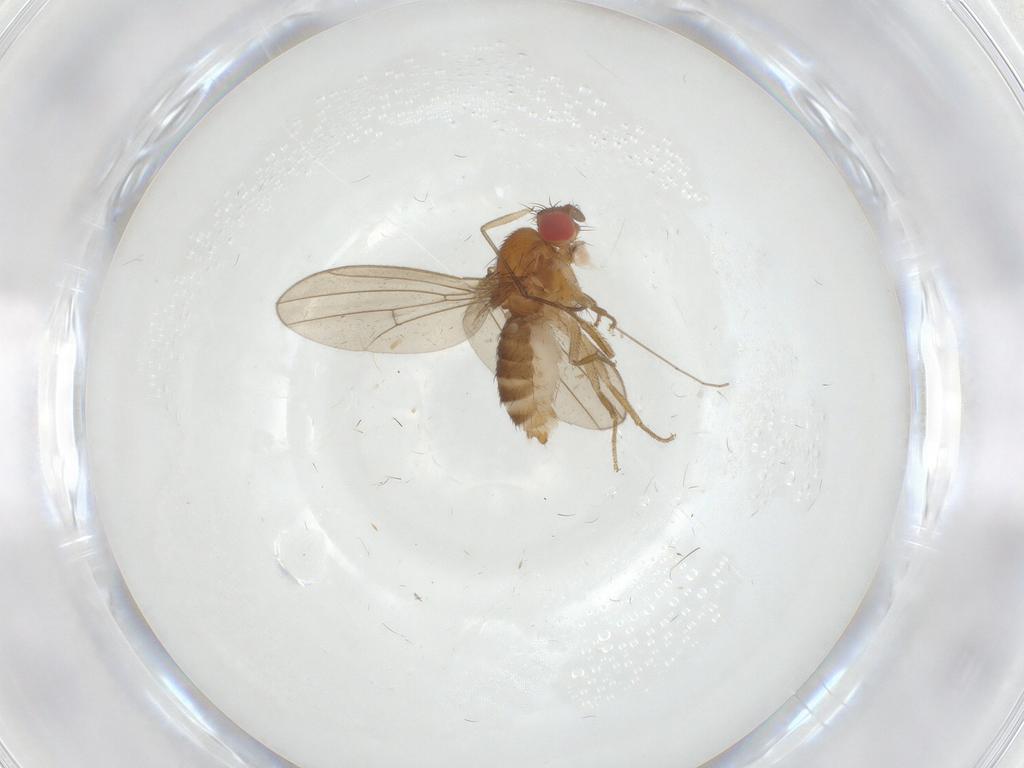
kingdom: Animalia
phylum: Arthropoda
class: Insecta
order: Diptera
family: Drosophilidae
